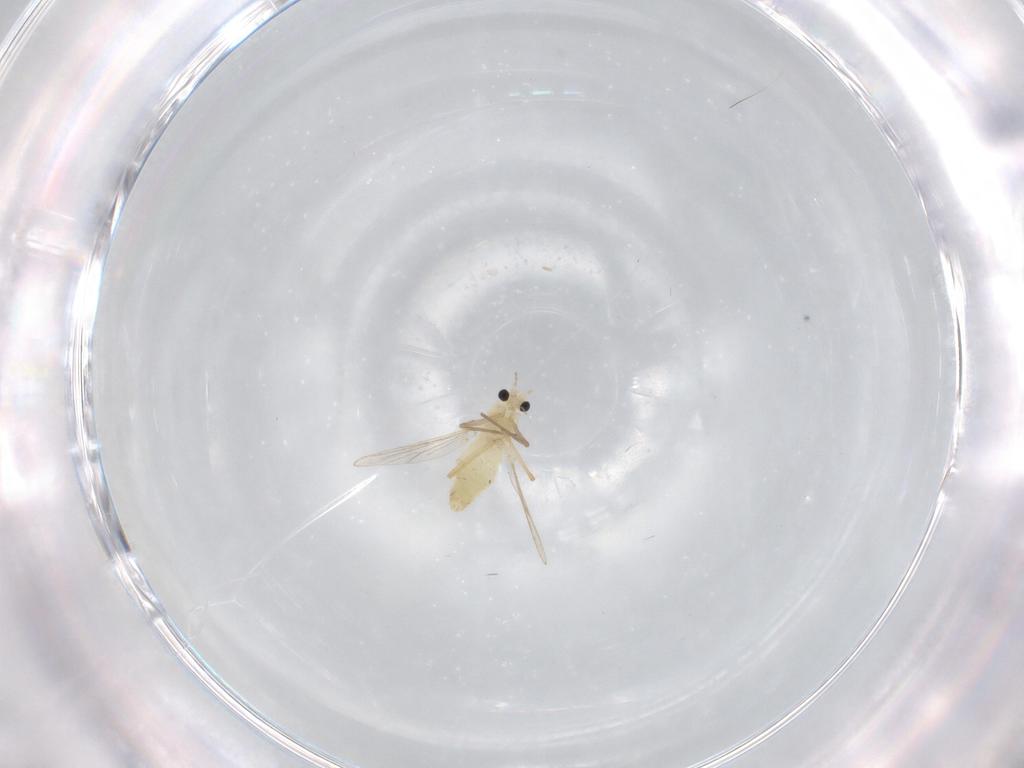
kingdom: Animalia
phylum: Arthropoda
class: Insecta
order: Diptera
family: Chironomidae
